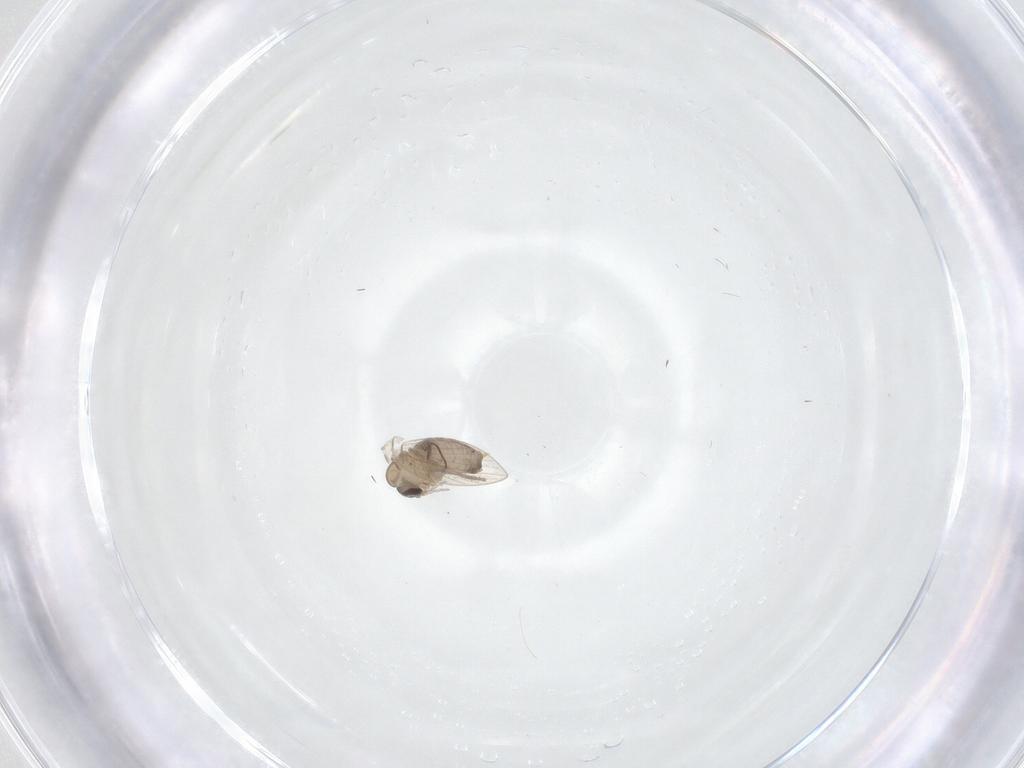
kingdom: Animalia
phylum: Arthropoda
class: Insecta
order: Diptera
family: Psychodidae
